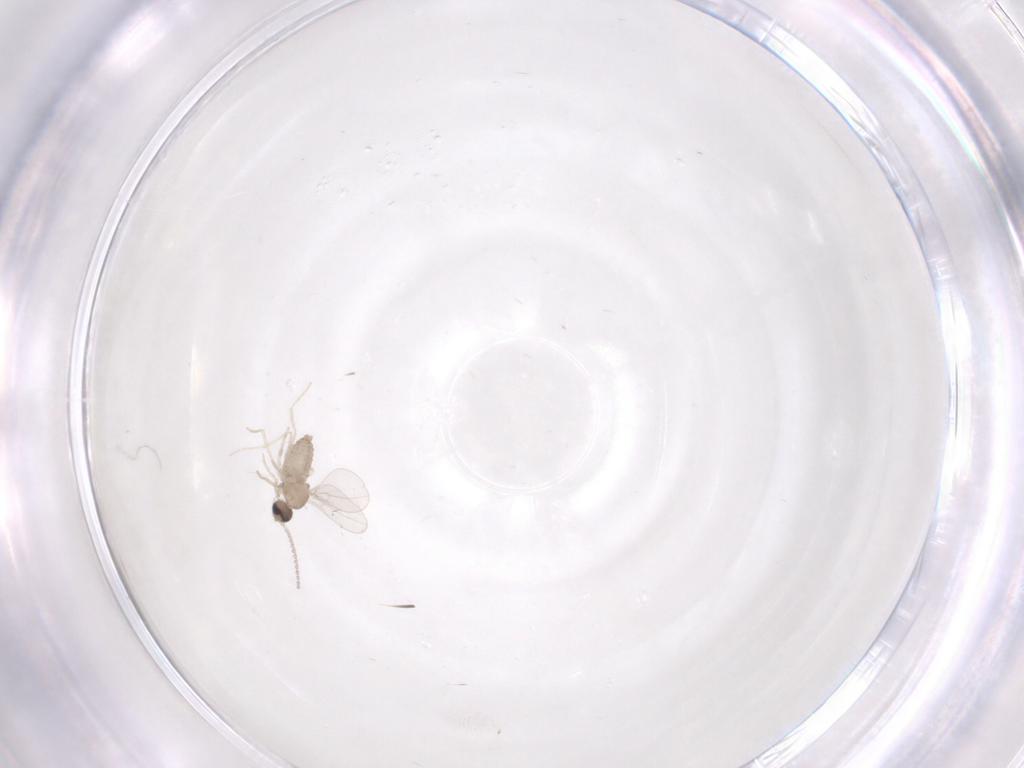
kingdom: Animalia
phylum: Arthropoda
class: Insecta
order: Diptera
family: Cecidomyiidae
